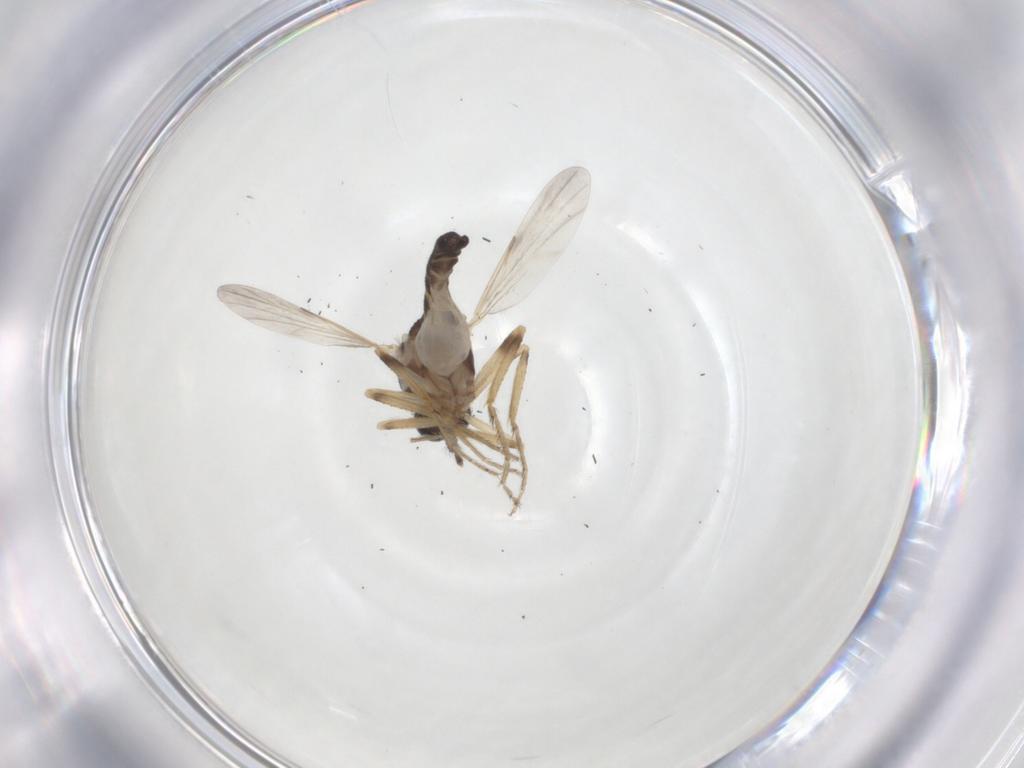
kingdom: Animalia
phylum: Arthropoda
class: Insecta
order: Diptera
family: Ceratopogonidae
